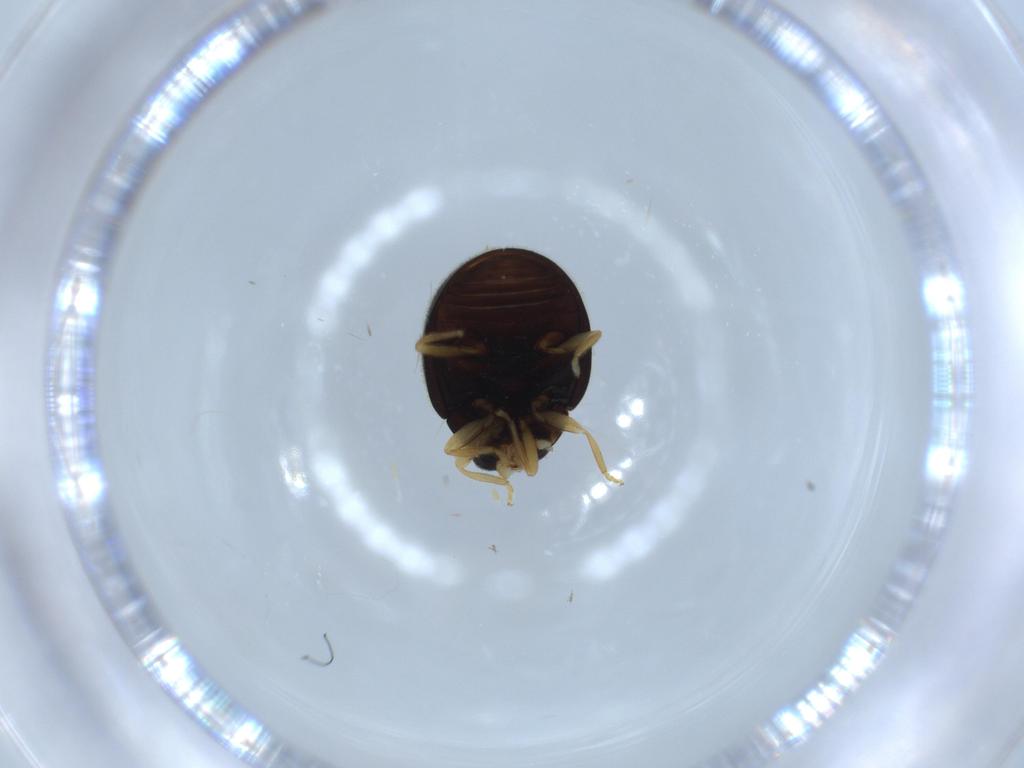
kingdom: Animalia
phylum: Arthropoda
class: Insecta
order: Coleoptera
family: Coccinellidae
